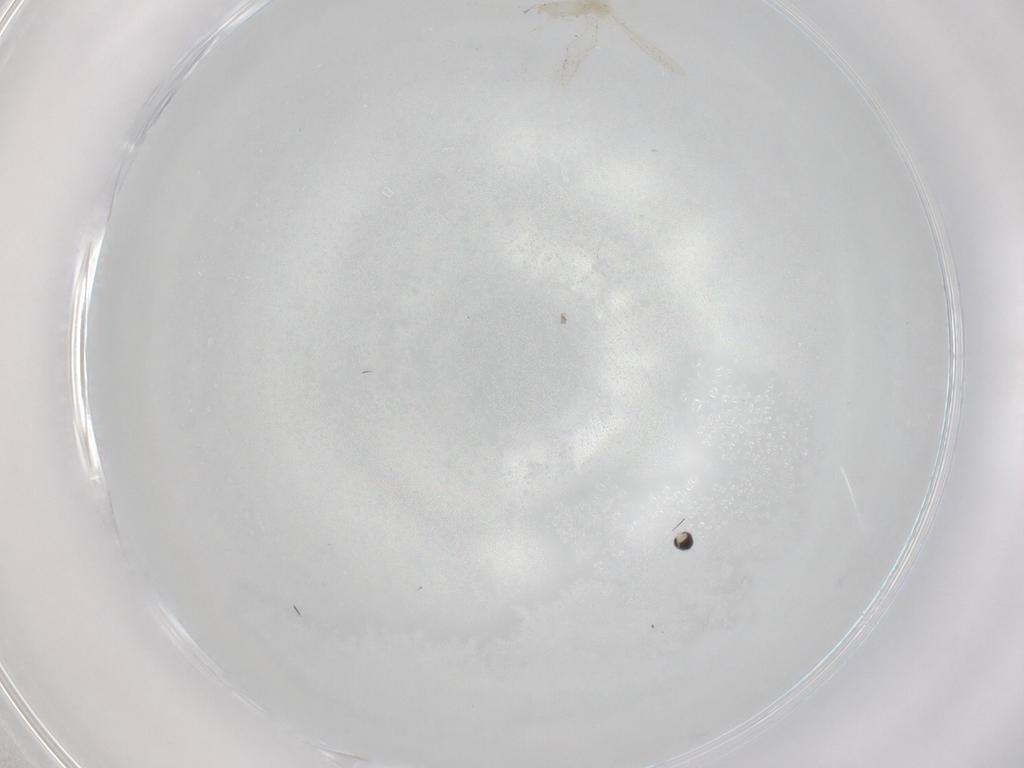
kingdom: Animalia
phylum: Arthropoda
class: Insecta
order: Diptera
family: Cecidomyiidae
